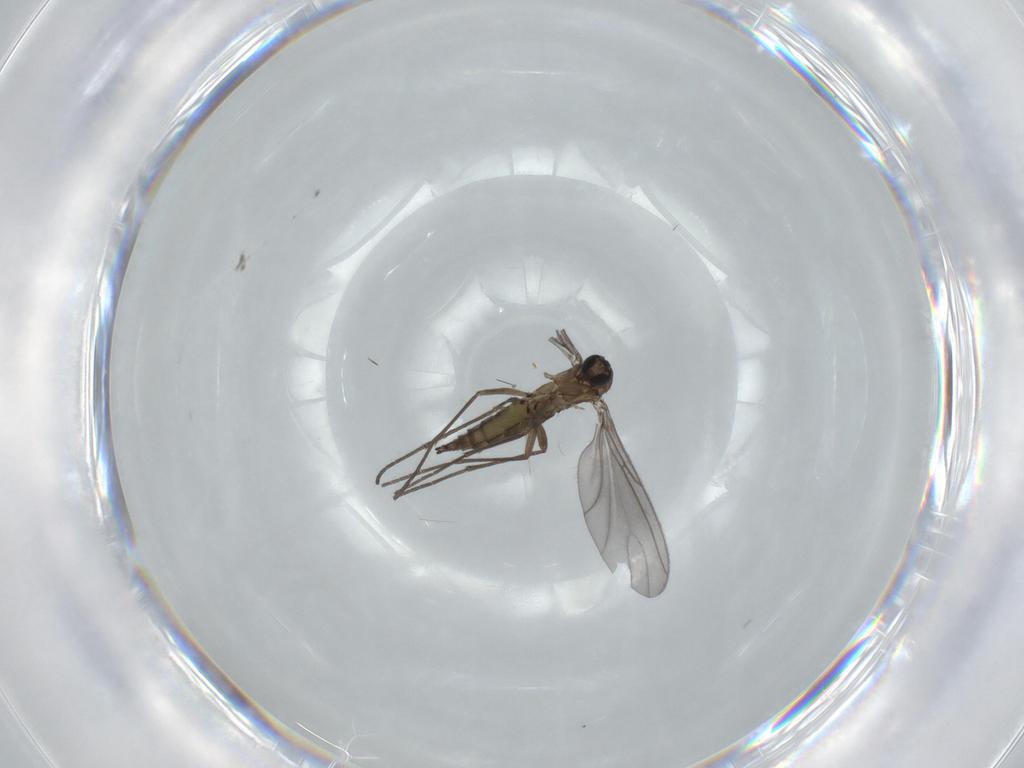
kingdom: Animalia
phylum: Arthropoda
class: Insecta
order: Diptera
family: Sciaridae
